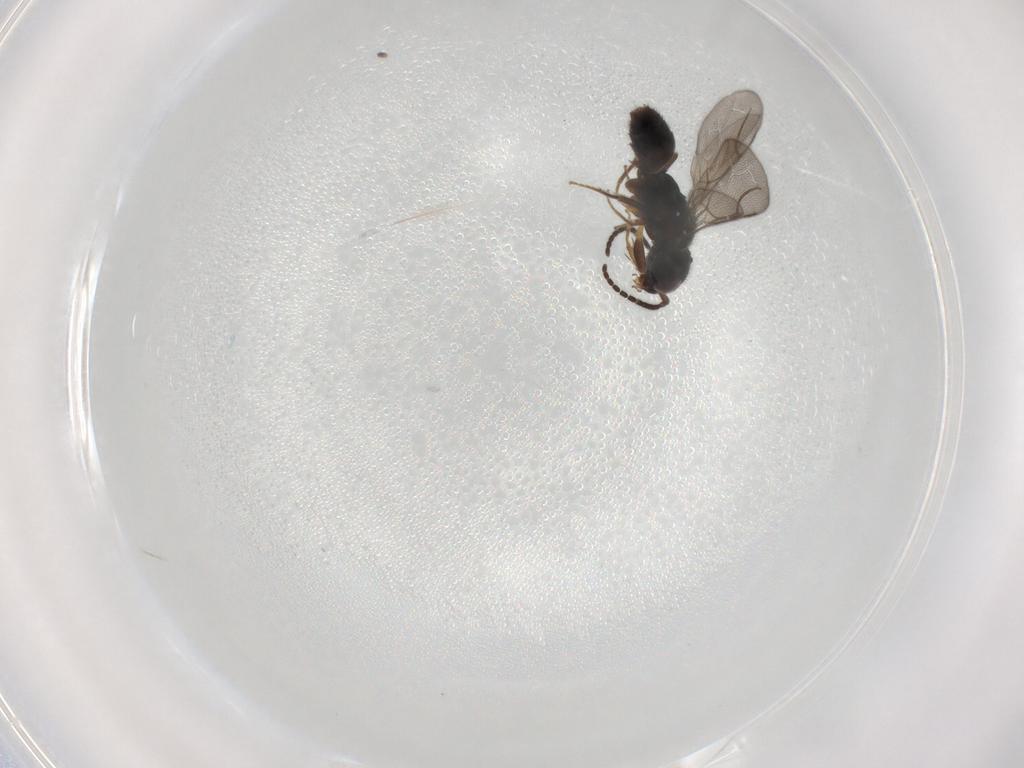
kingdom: Animalia
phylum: Arthropoda
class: Insecta
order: Hymenoptera
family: Bethylidae
